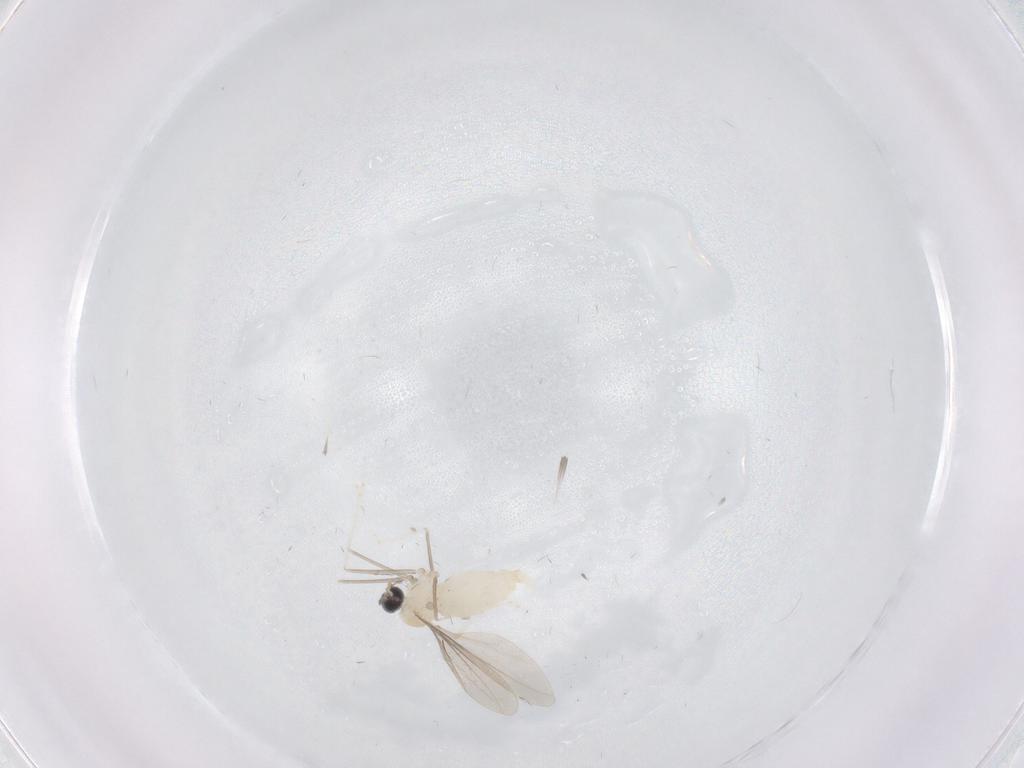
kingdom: Animalia
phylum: Arthropoda
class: Insecta
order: Diptera
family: Cecidomyiidae
